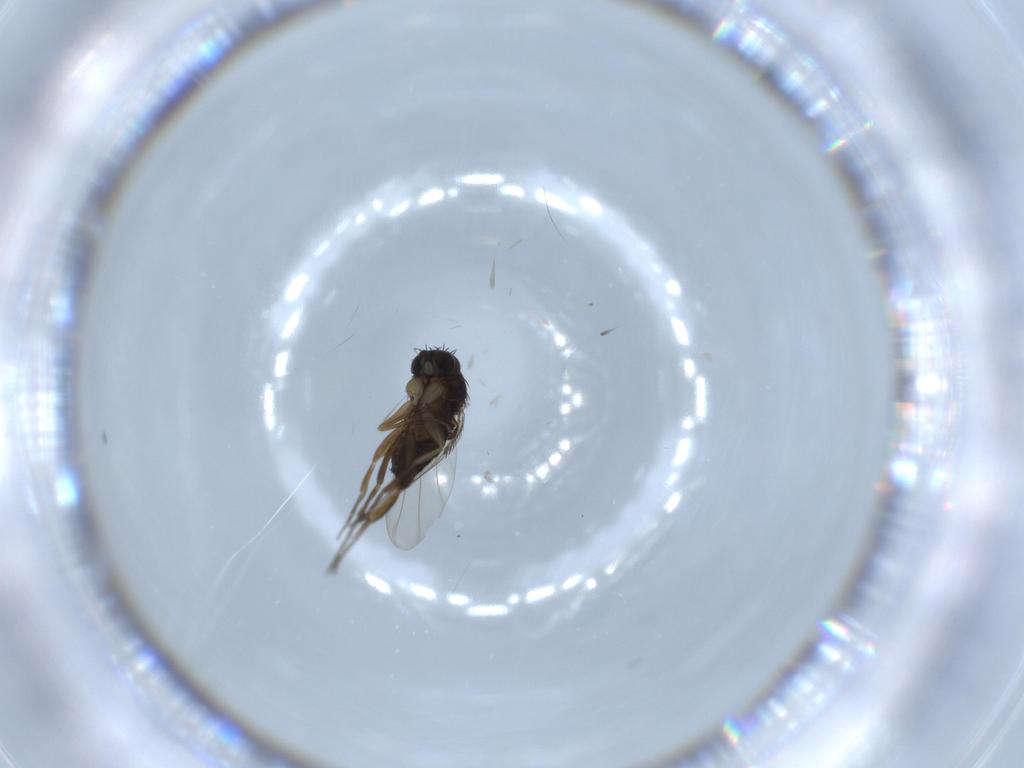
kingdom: Animalia
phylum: Arthropoda
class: Insecta
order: Diptera
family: Phoridae
